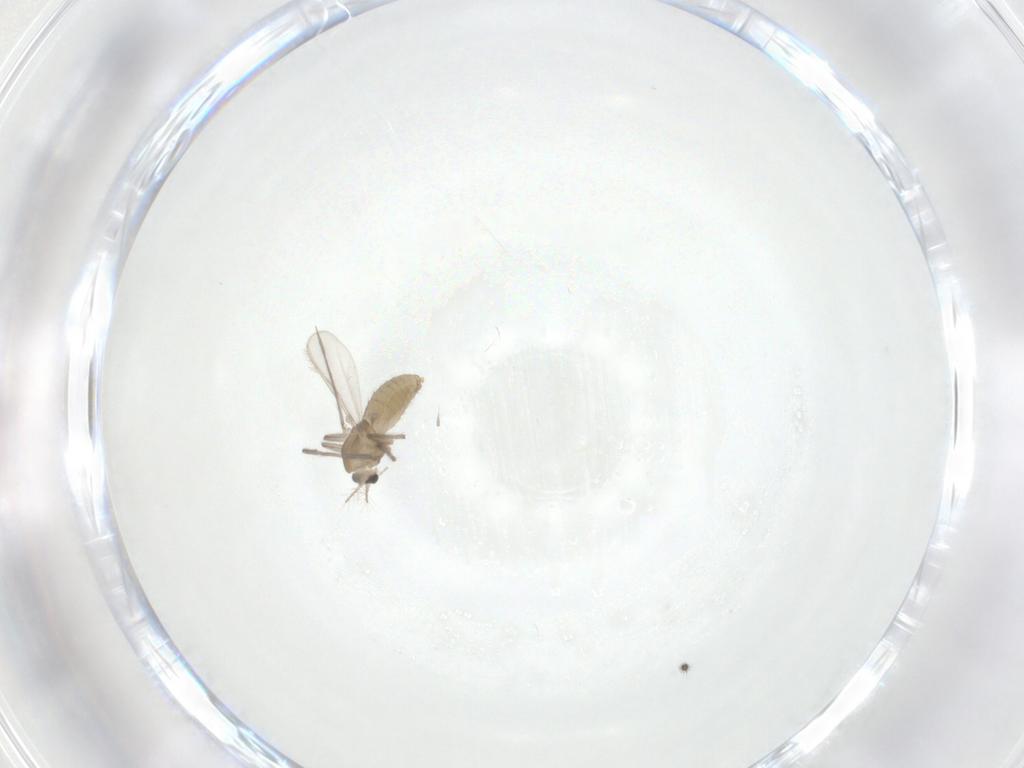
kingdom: Animalia
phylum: Arthropoda
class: Insecta
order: Diptera
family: Chironomidae
